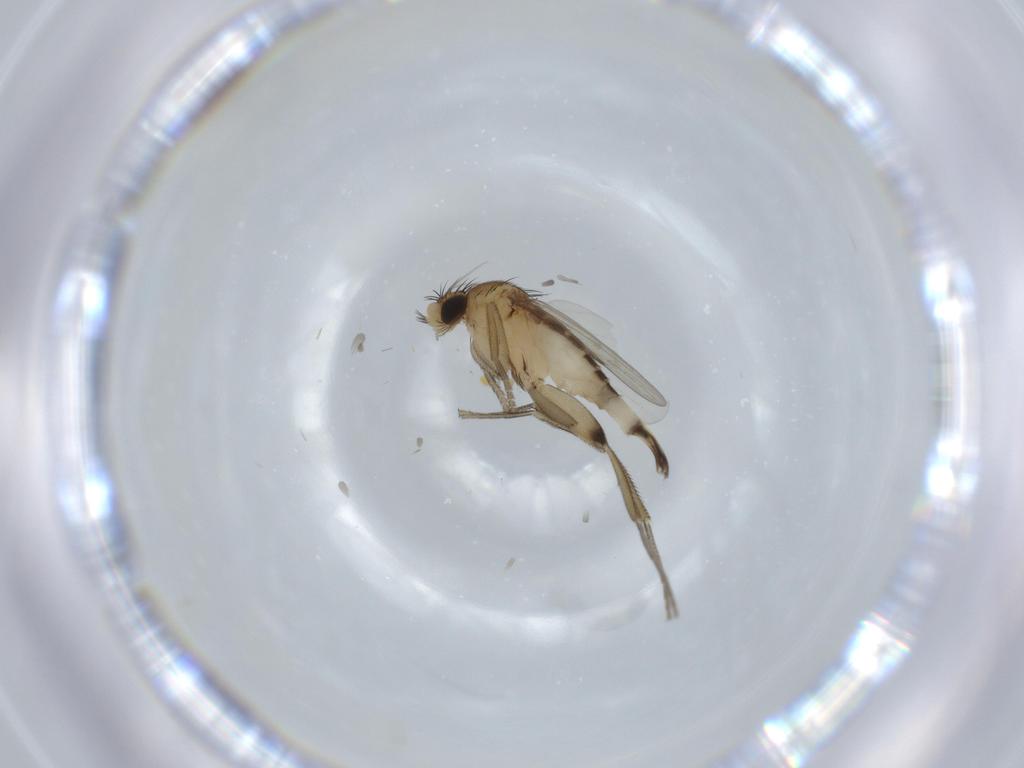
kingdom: Animalia
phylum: Arthropoda
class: Insecta
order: Diptera
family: Phoridae
